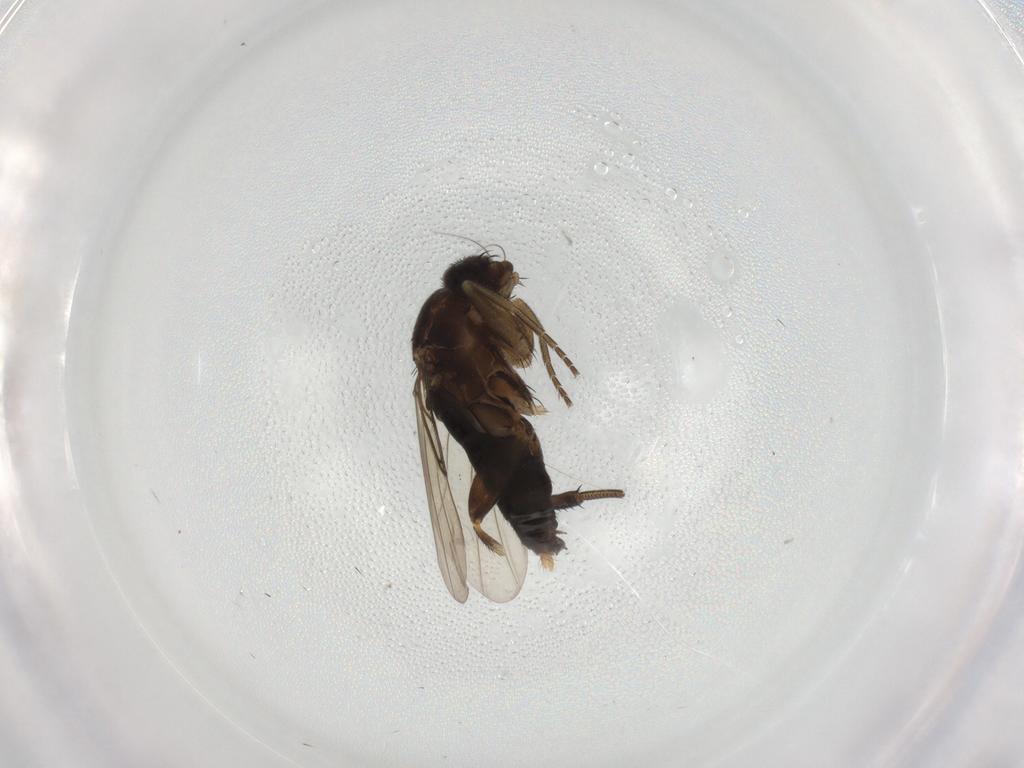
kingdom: Animalia
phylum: Arthropoda
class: Insecta
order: Diptera
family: Phoridae
